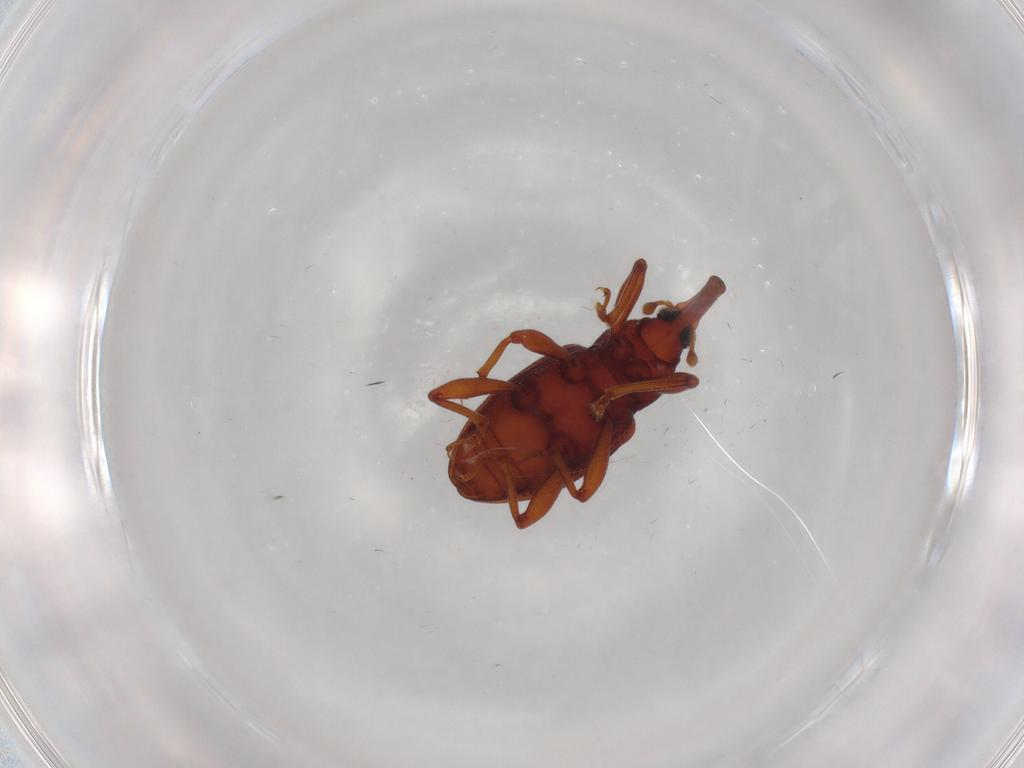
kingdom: Animalia
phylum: Arthropoda
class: Insecta
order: Coleoptera
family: Curculionidae
